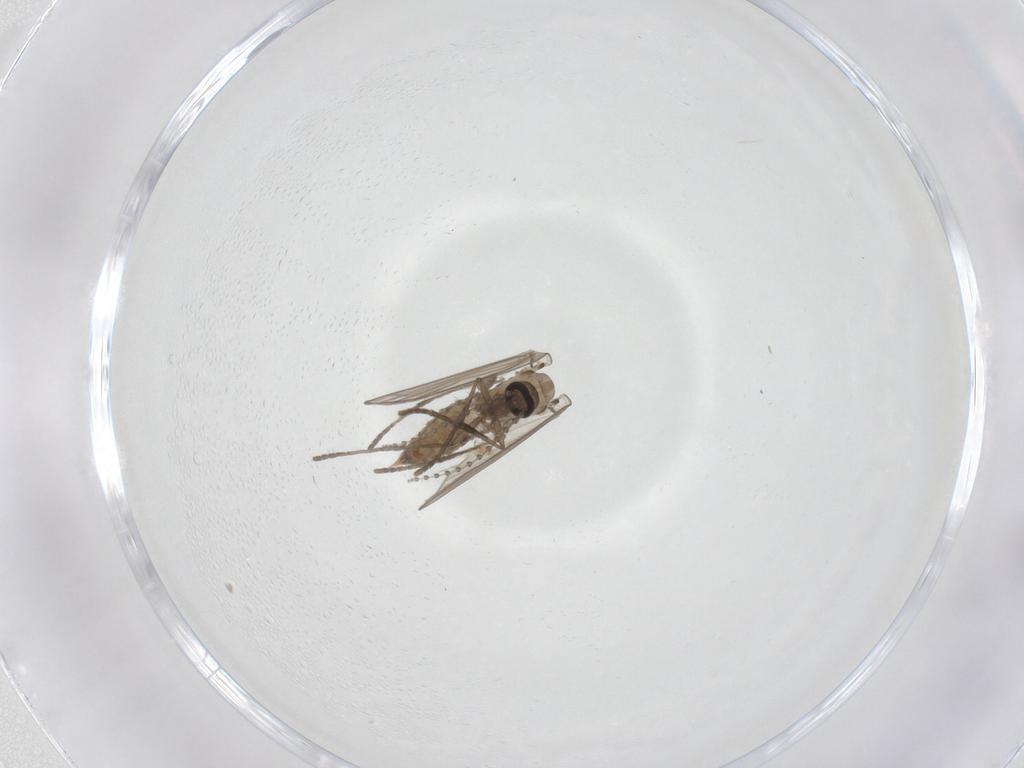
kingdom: Animalia
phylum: Arthropoda
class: Insecta
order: Diptera
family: Psychodidae
